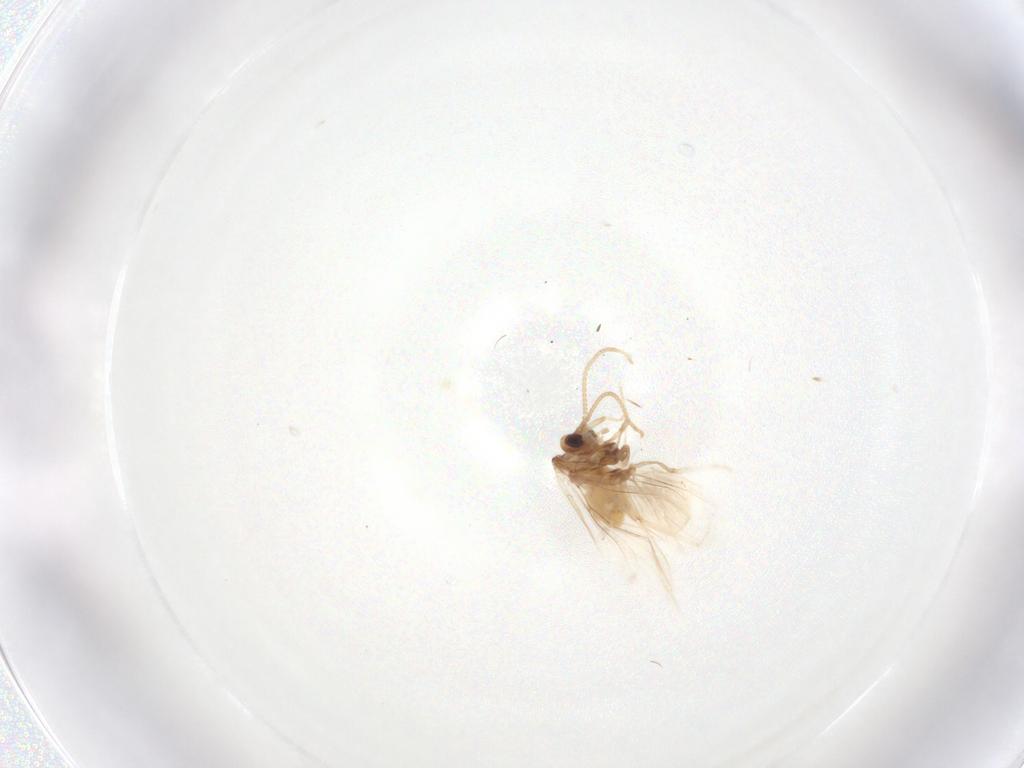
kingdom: Animalia
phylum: Arthropoda
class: Insecta
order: Neuroptera
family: Coniopterygidae
